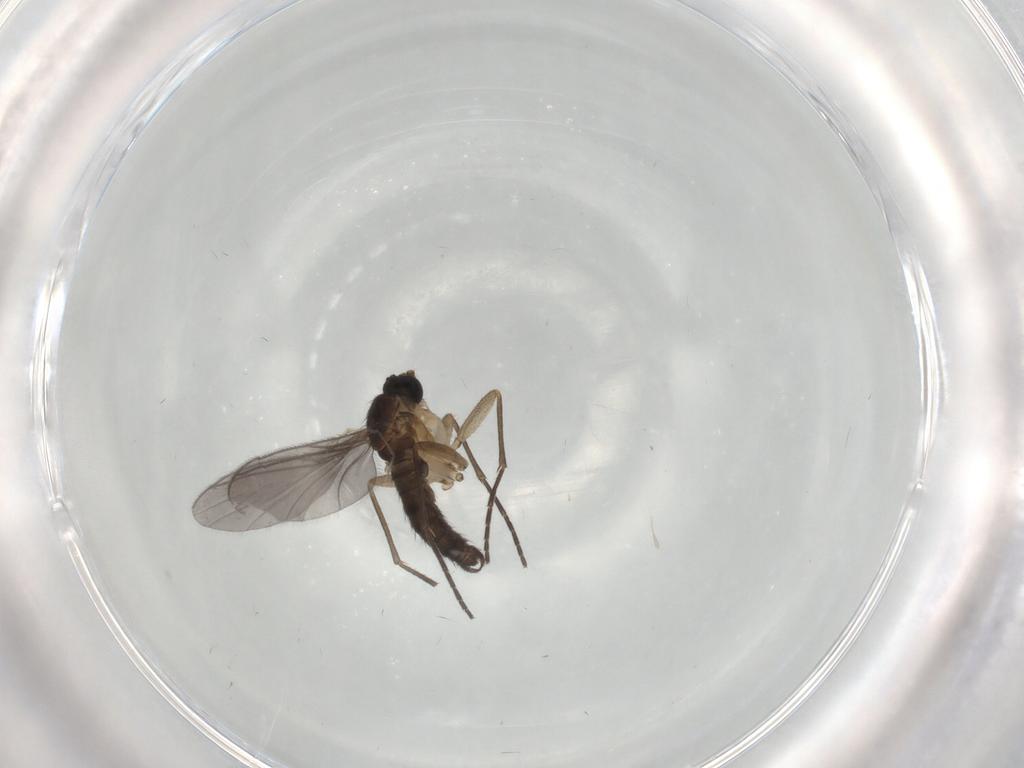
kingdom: Animalia
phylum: Arthropoda
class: Insecta
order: Diptera
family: Sciaridae
